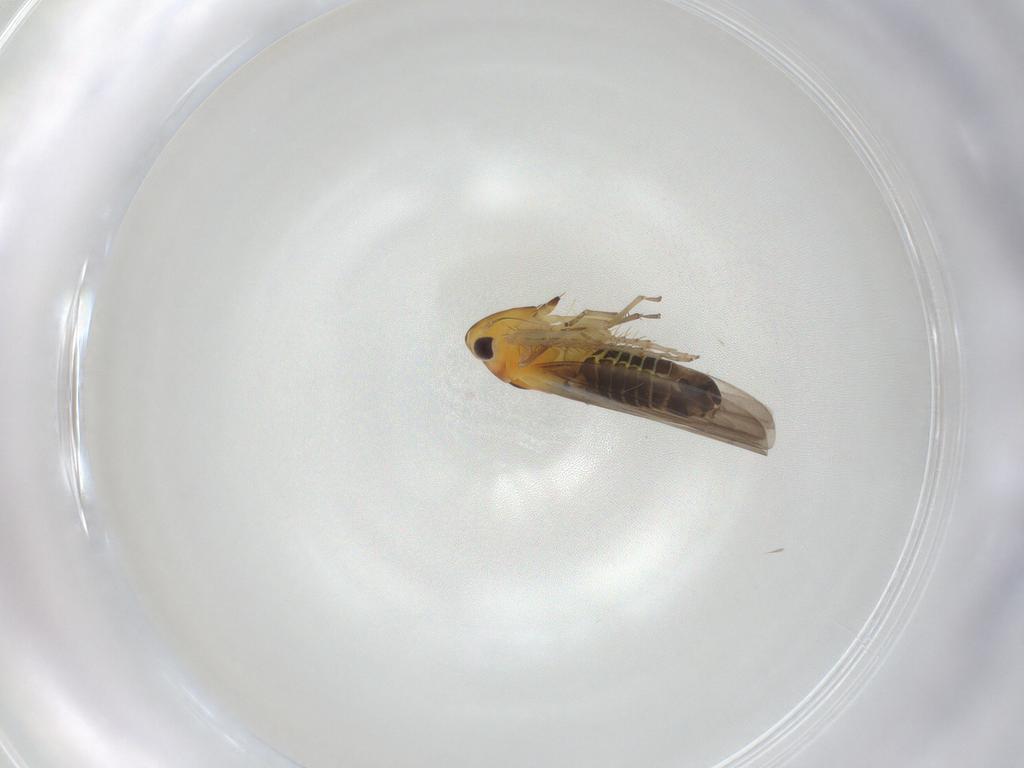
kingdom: Animalia
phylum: Arthropoda
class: Insecta
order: Hemiptera
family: Cicadellidae
